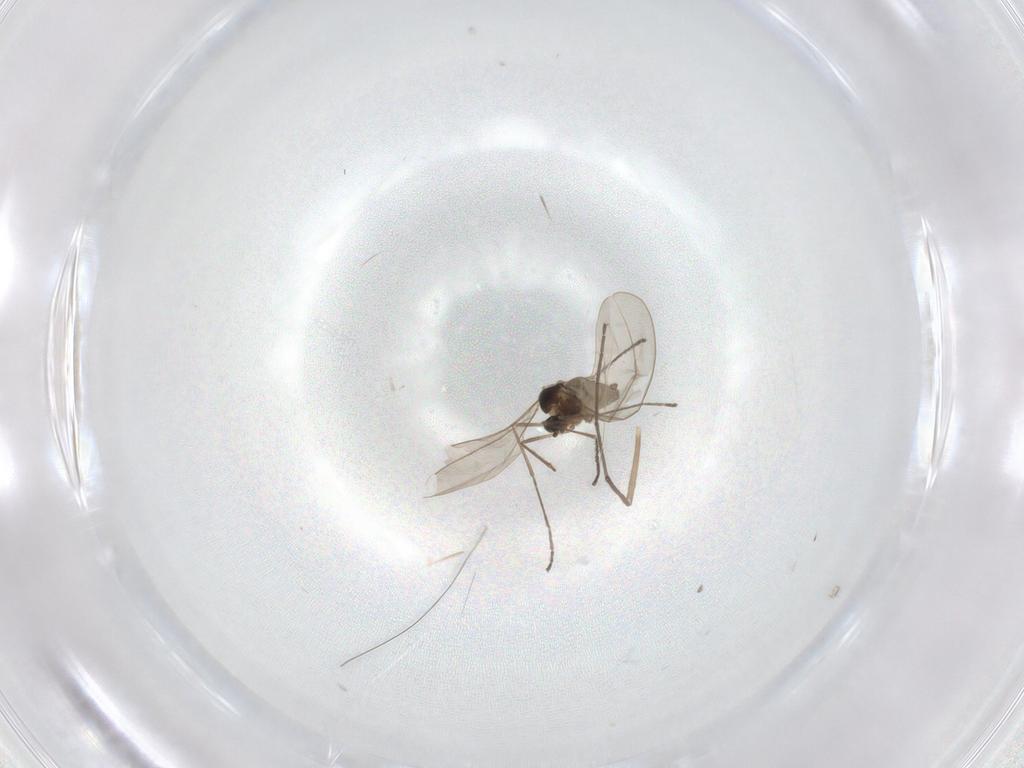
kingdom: Animalia
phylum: Arthropoda
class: Insecta
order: Diptera
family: Cecidomyiidae
